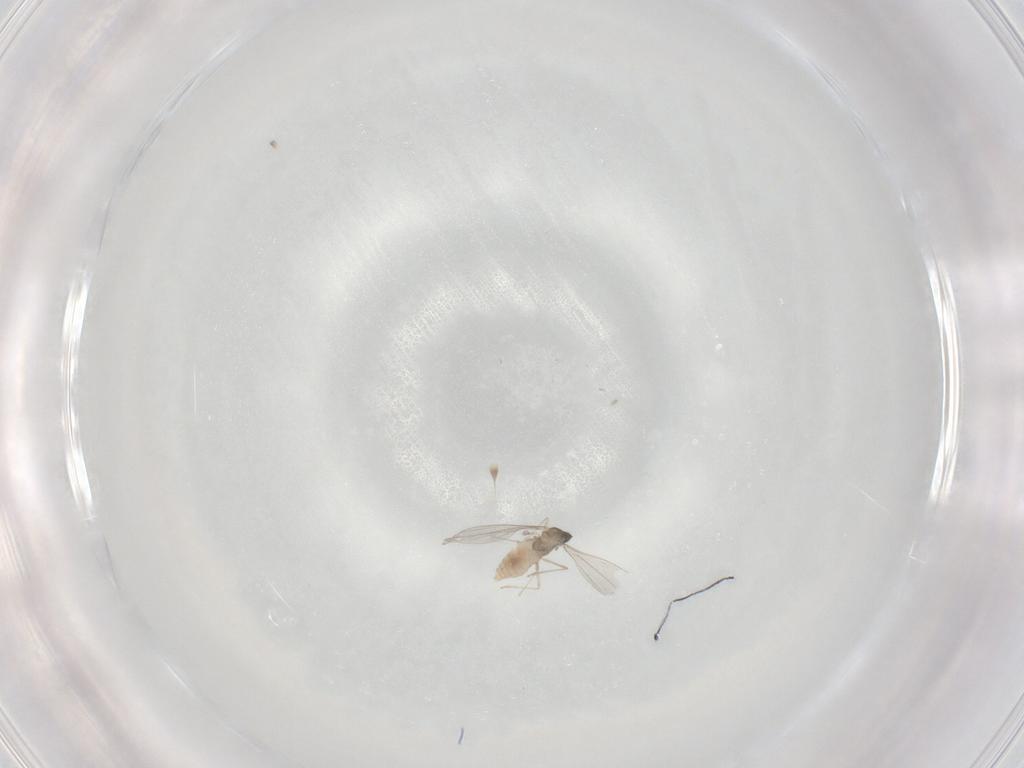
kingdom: Animalia
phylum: Arthropoda
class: Insecta
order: Diptera
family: Cecidomyiidae
